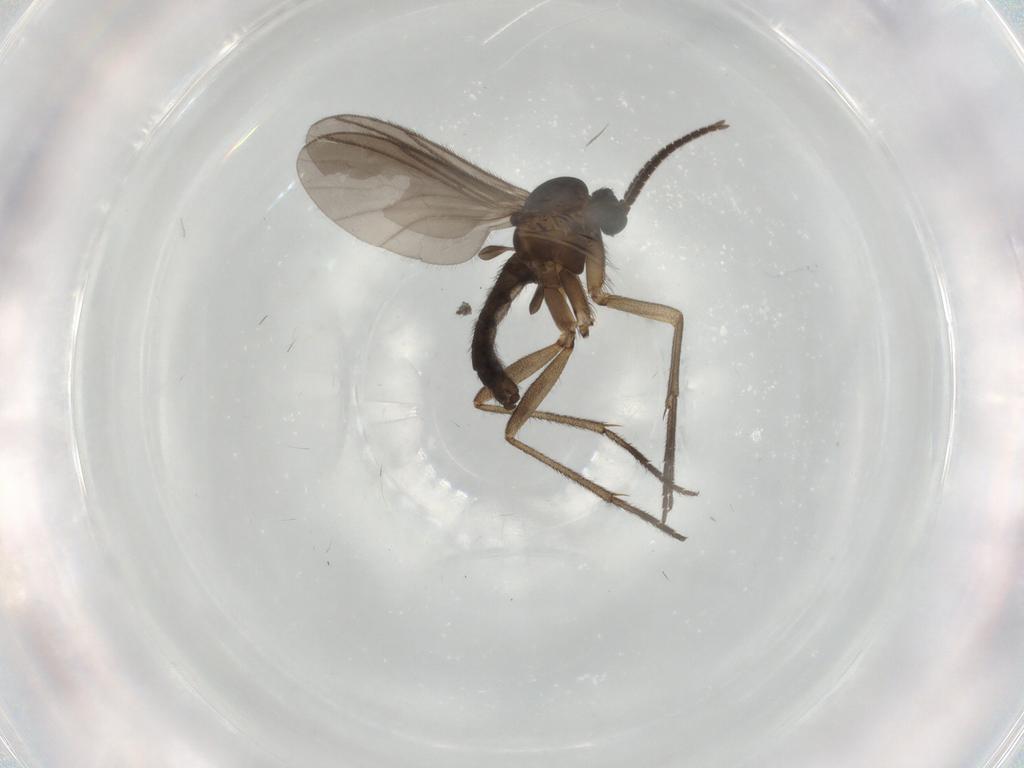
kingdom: Animalia
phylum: Arthropoda
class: Insecta
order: Diptera
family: Sciaridae
